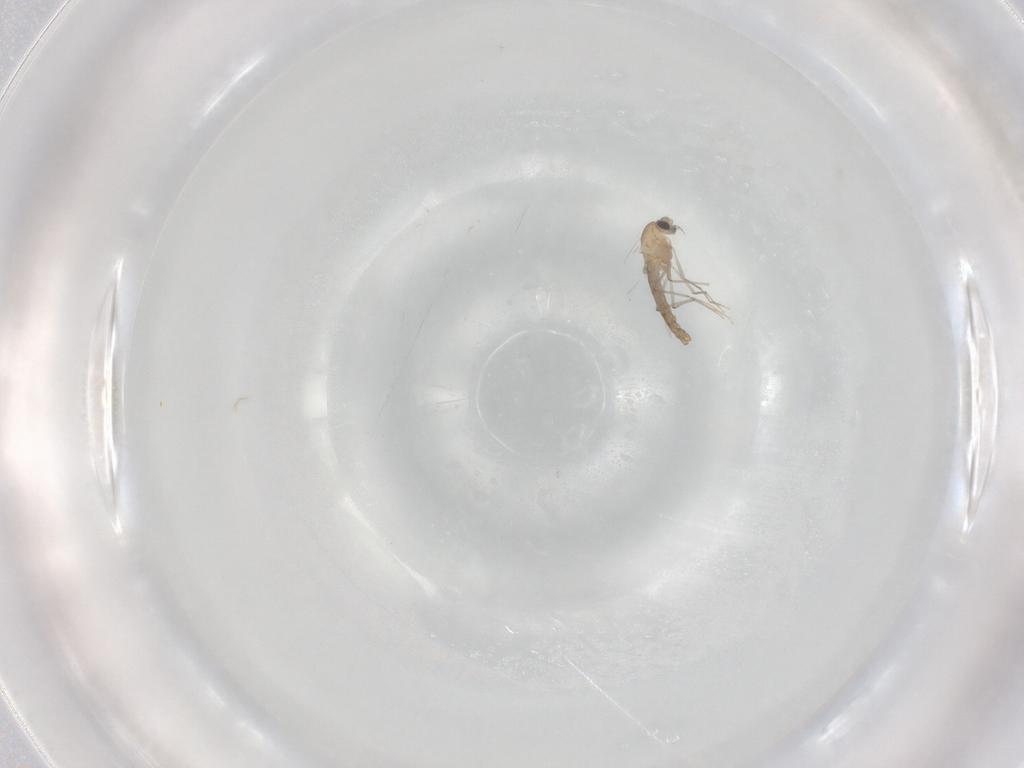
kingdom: Animalia
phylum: Arthropoda
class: Insecta
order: Diptera
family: Chironomidae
